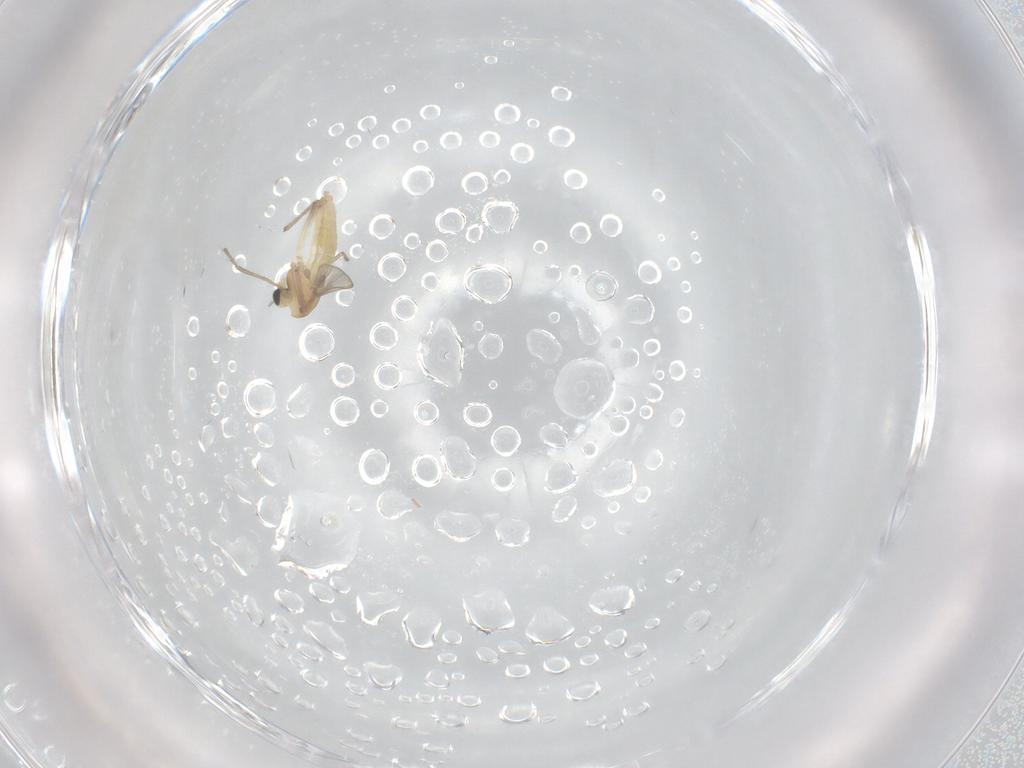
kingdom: Animalia
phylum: Arthropoda
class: Insecta
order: Diptera
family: Chironomidae
